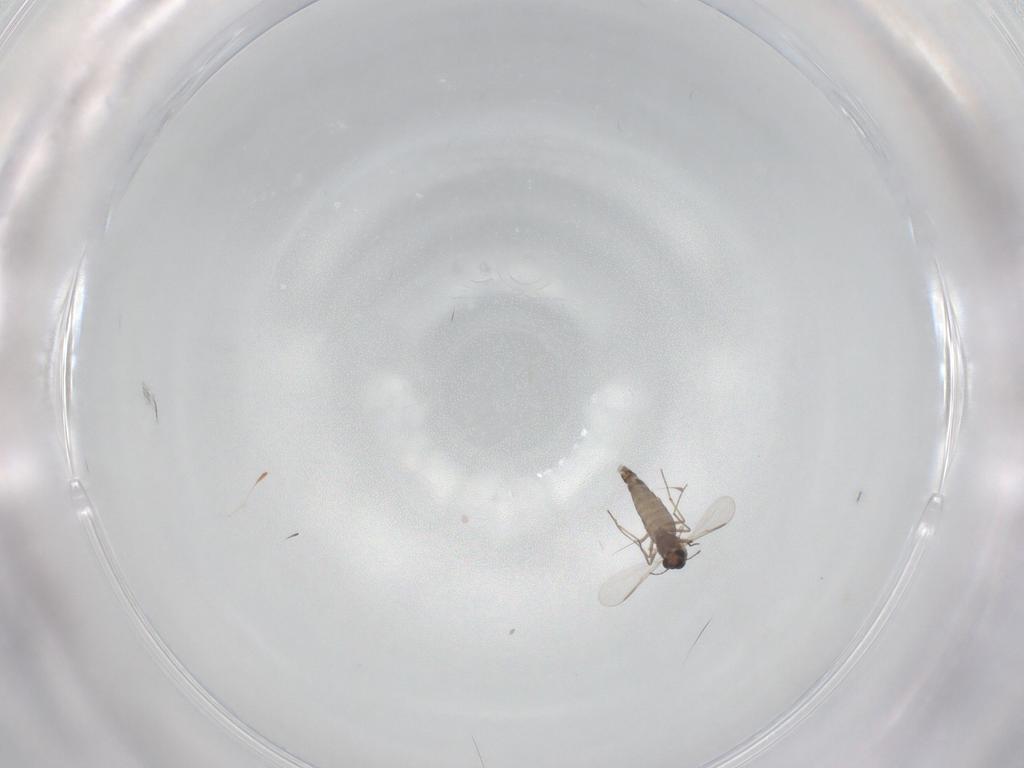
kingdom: Animalia
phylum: Arthropoda
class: Insecta
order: Diptera
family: Chironomidae
